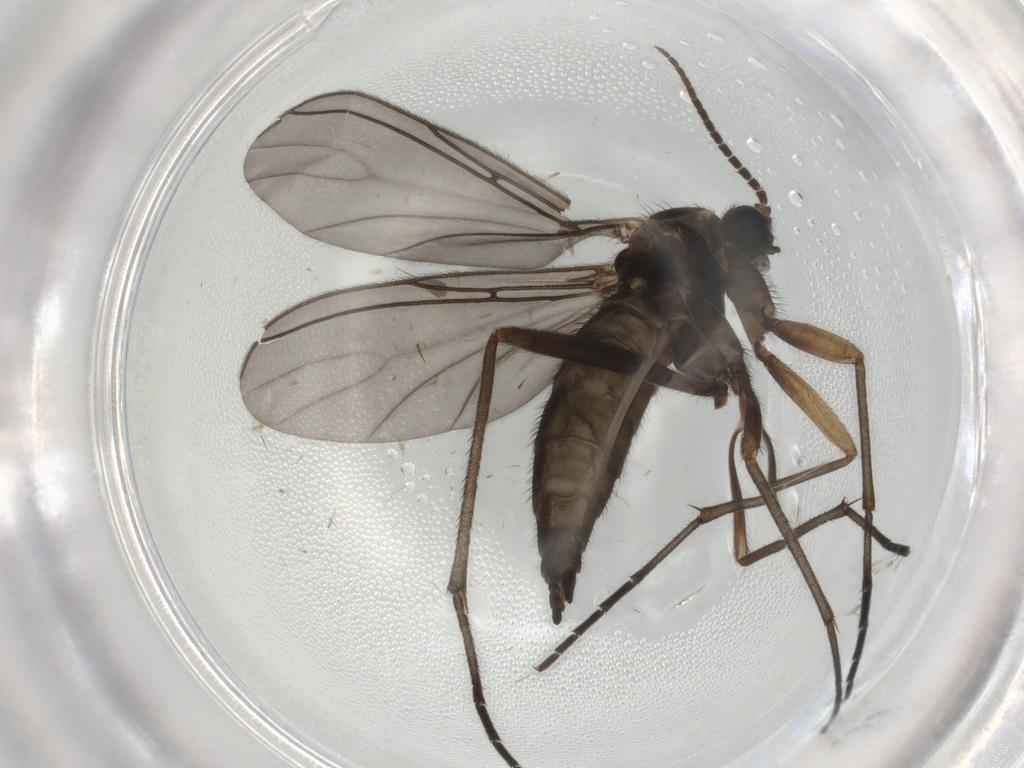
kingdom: Animalia
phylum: Arthropoda
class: Insecta
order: Diptera
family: Sciaridae
